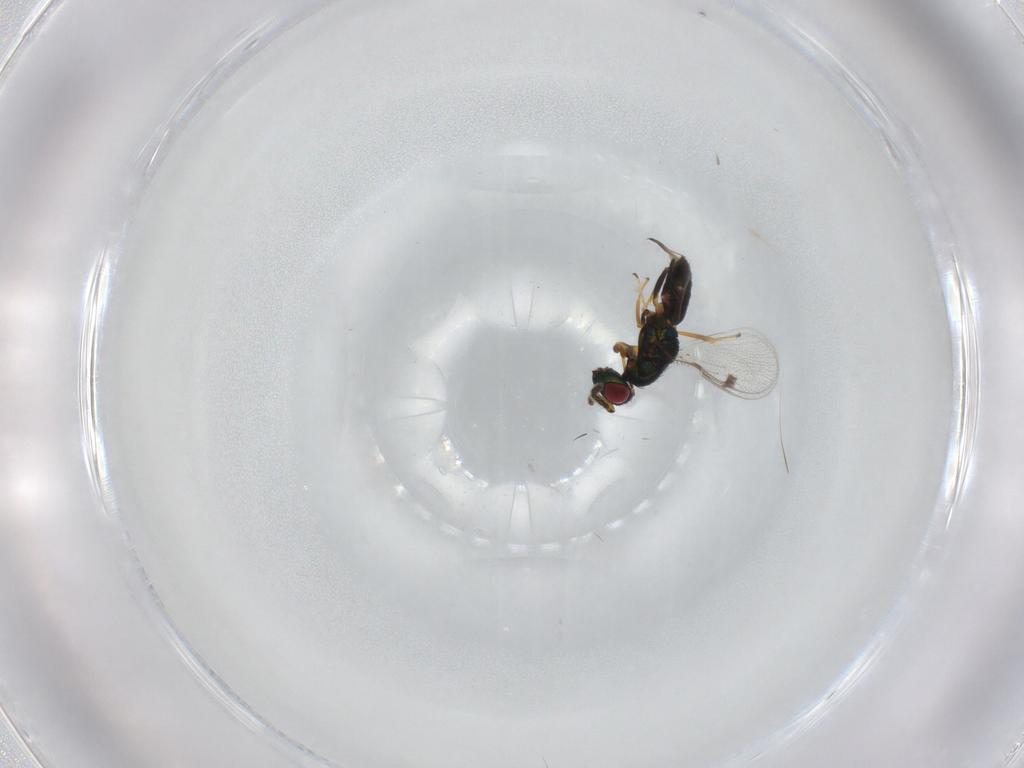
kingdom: Animalia
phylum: Arthropoda
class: Insecta
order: Hymenoptera
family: Pteromalidae
